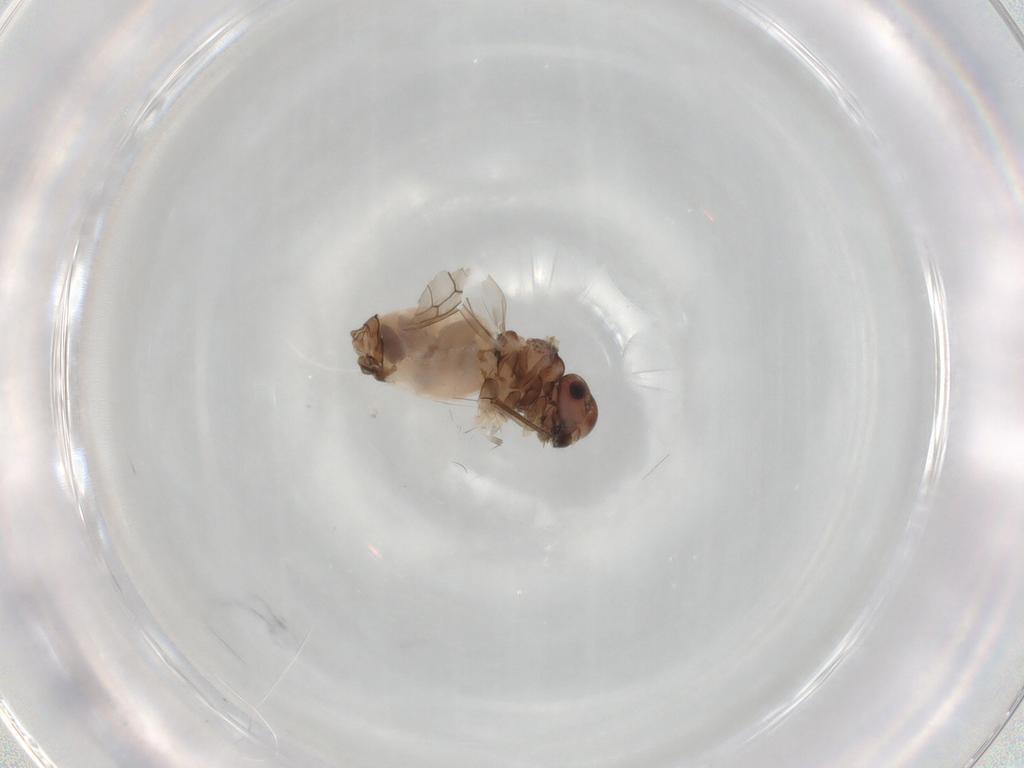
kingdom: Animalia
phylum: Arthropoda
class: Insecta
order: Psocodea
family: Peripsocidae
